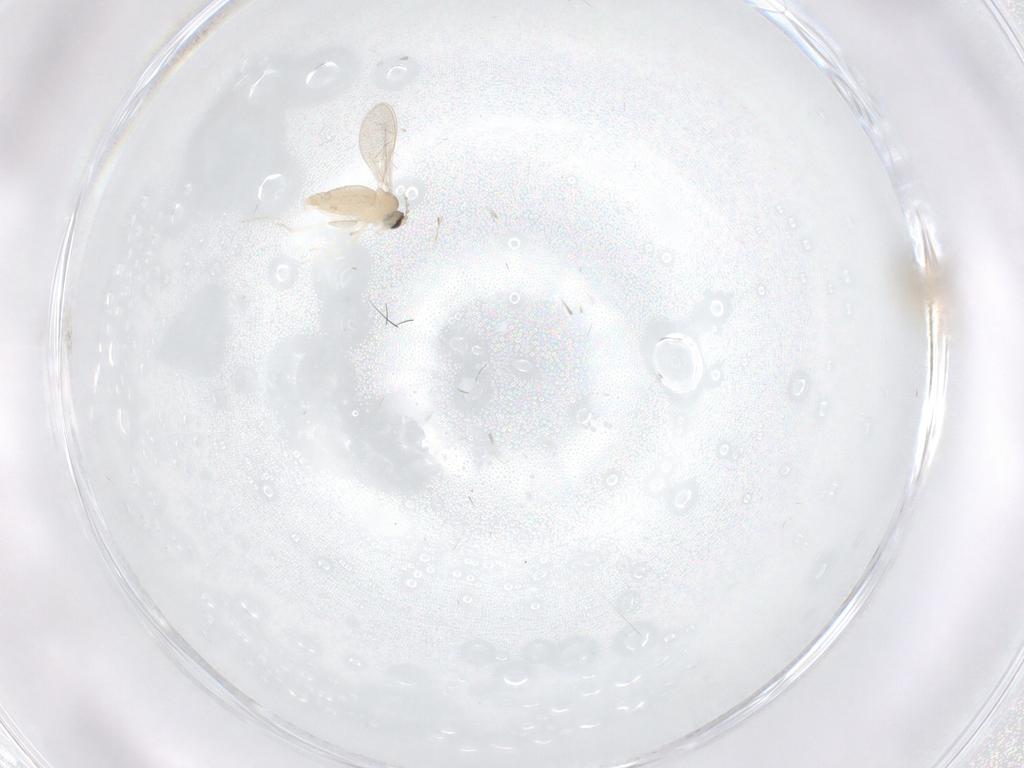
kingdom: Animalia
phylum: Arthropoda
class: Insecta
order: Diptera
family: Cecidomyiidae
